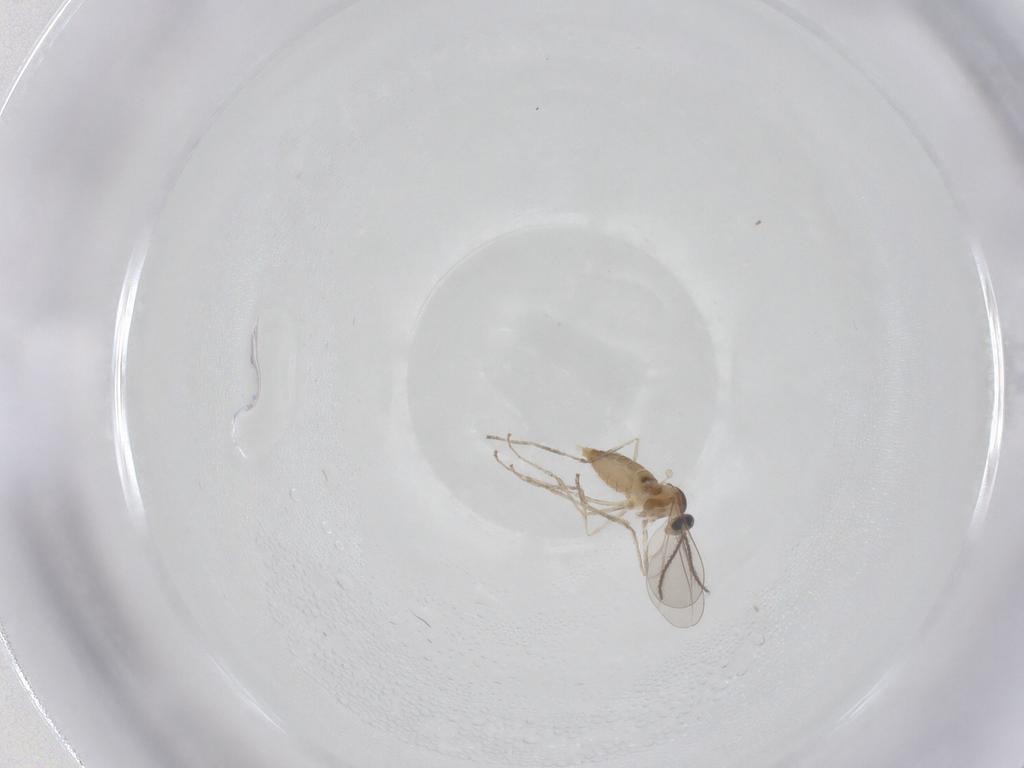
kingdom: Animalia
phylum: Arthropoda
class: Insecta
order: Diptera
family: Cecidomyiidae
